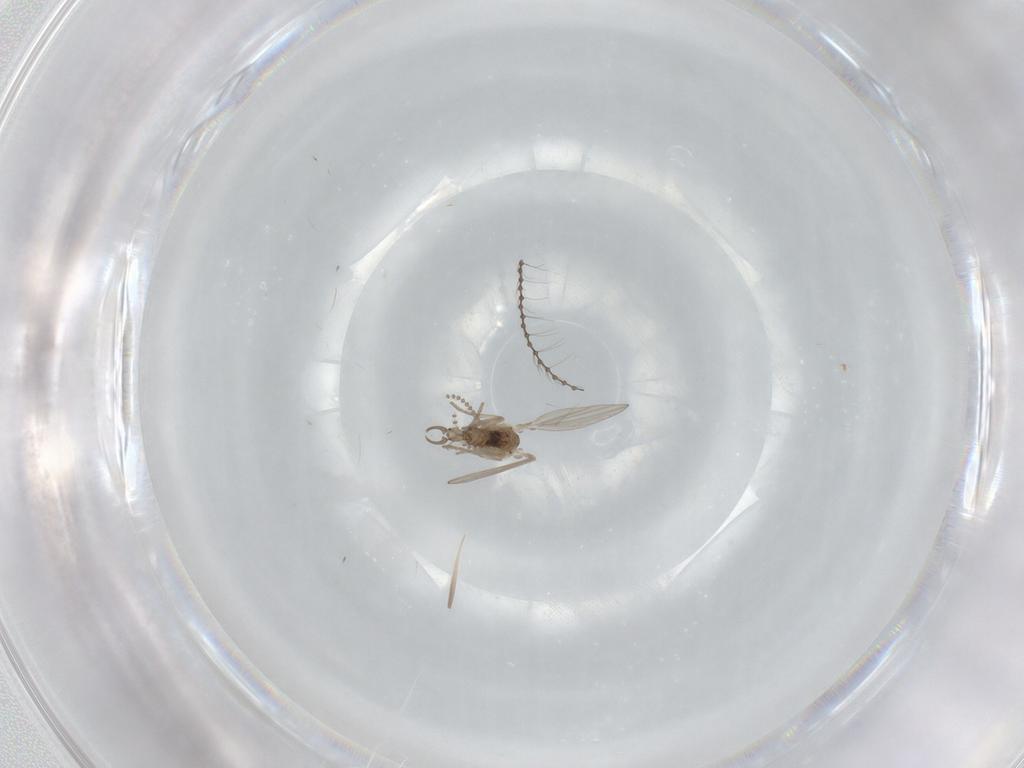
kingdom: Animalia
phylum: Arthropoda
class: Insecta
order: Diptera
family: Psychodidae
